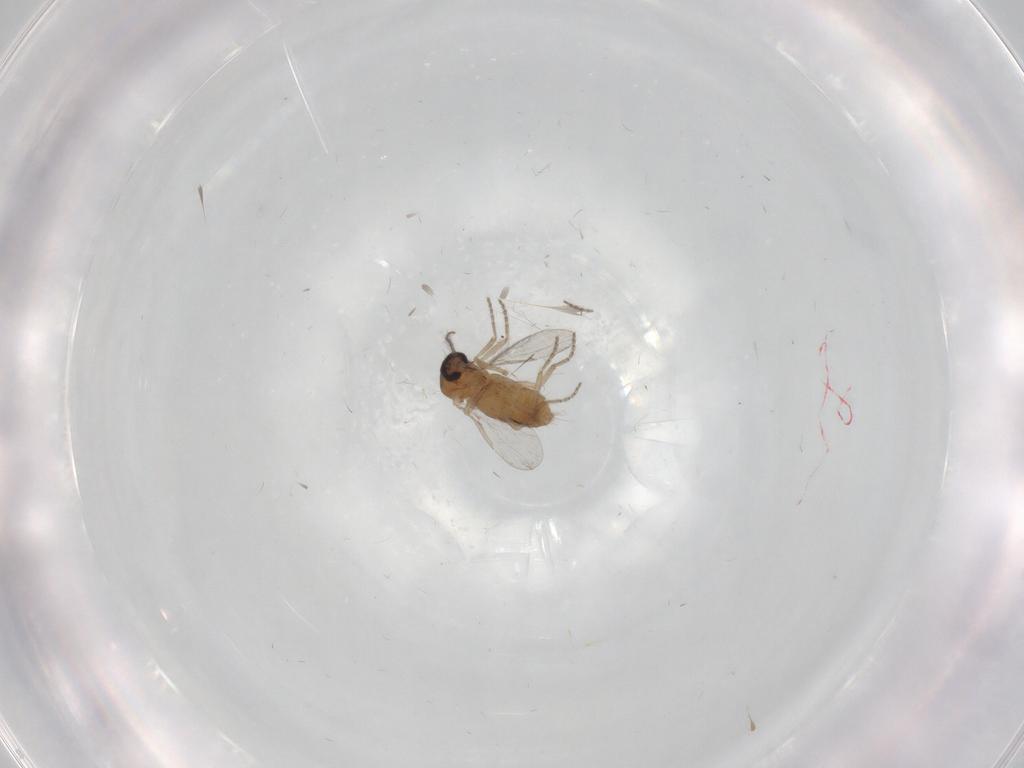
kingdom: Animalia
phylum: Arthropoda
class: Insecta
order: Diptera
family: Ceratopogonidae
